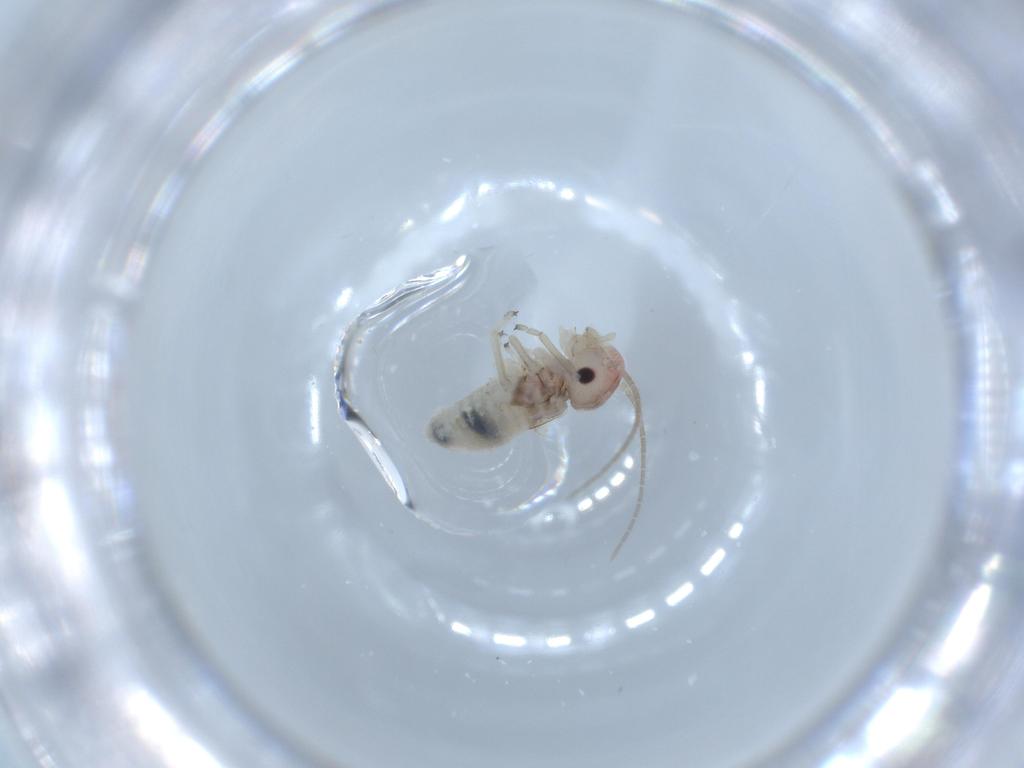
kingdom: Animalia
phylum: Arthropoda
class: Insecta
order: Psocodea
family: Amphipsocidae
